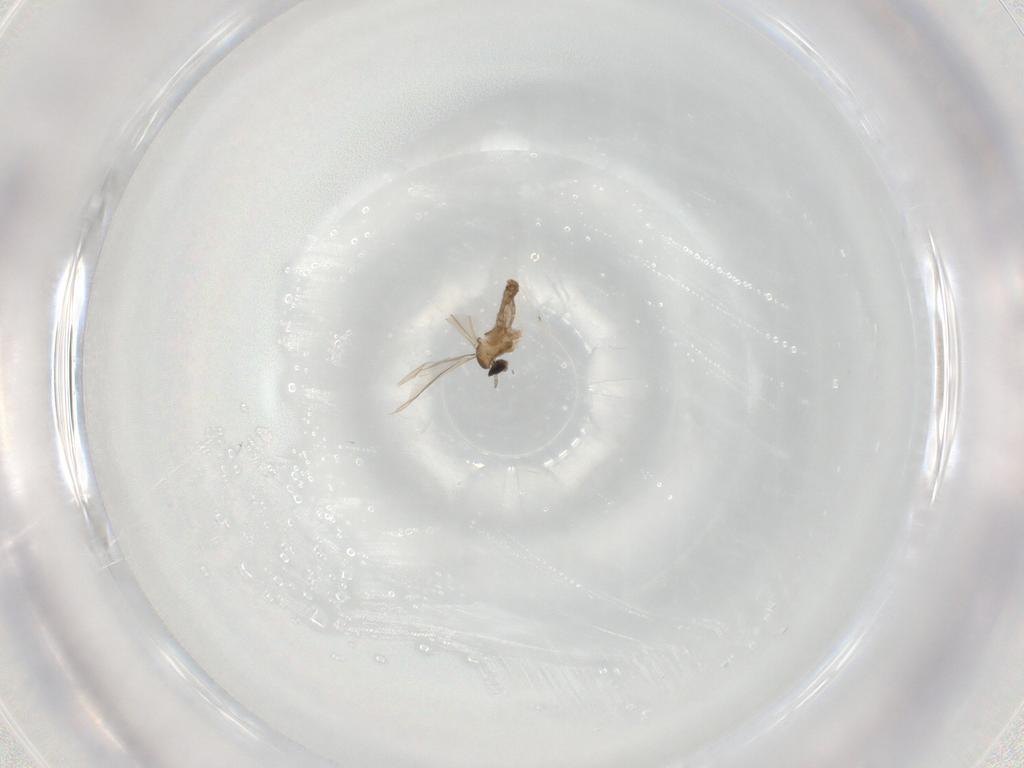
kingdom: Animalia
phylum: Arthropoda
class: Insecta
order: Diptera
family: Cecidomyiidae
